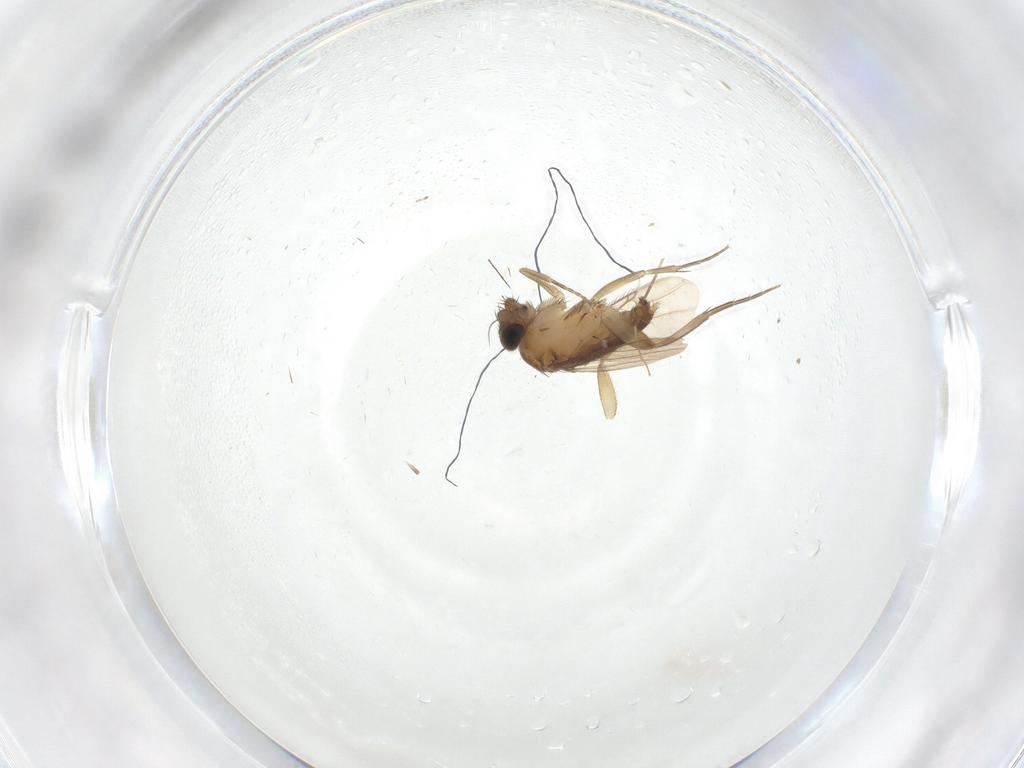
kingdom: Animalia
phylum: Arthropoda
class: Insecta
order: Diptera
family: Phoridae
